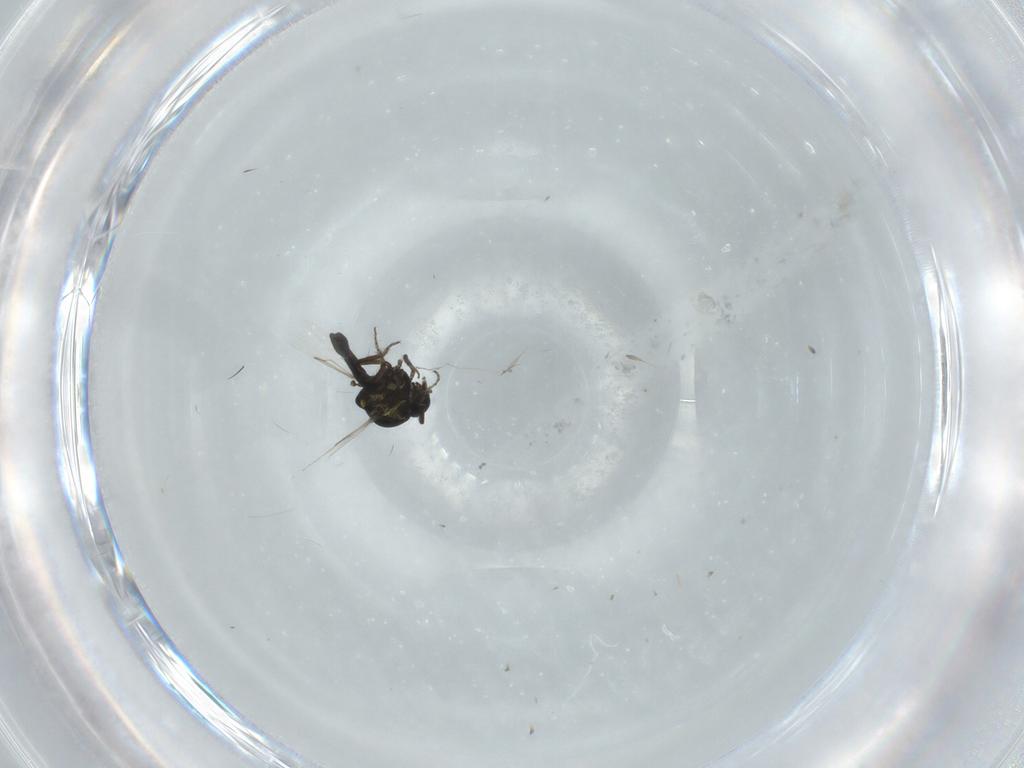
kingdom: Animalia
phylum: Arthropoda
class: Insecta
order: Diptera
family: Ceratopogonidae
